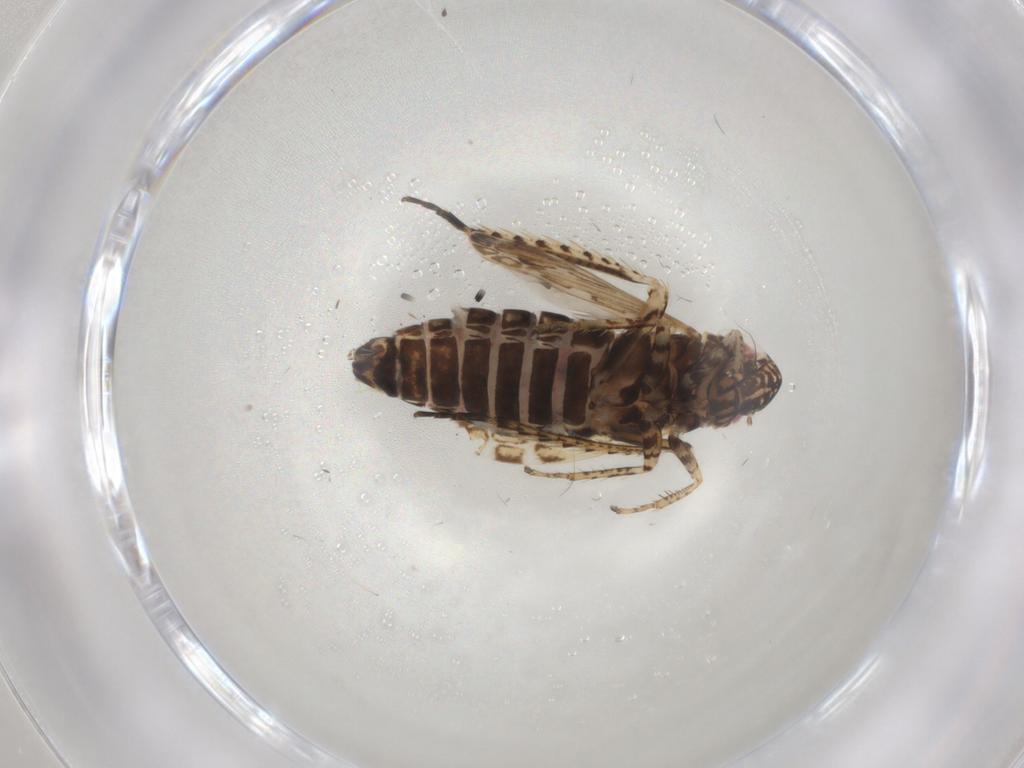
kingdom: Animalia
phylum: Arthropoda
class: Insecta
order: Hemiptera
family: Cicadellidae
